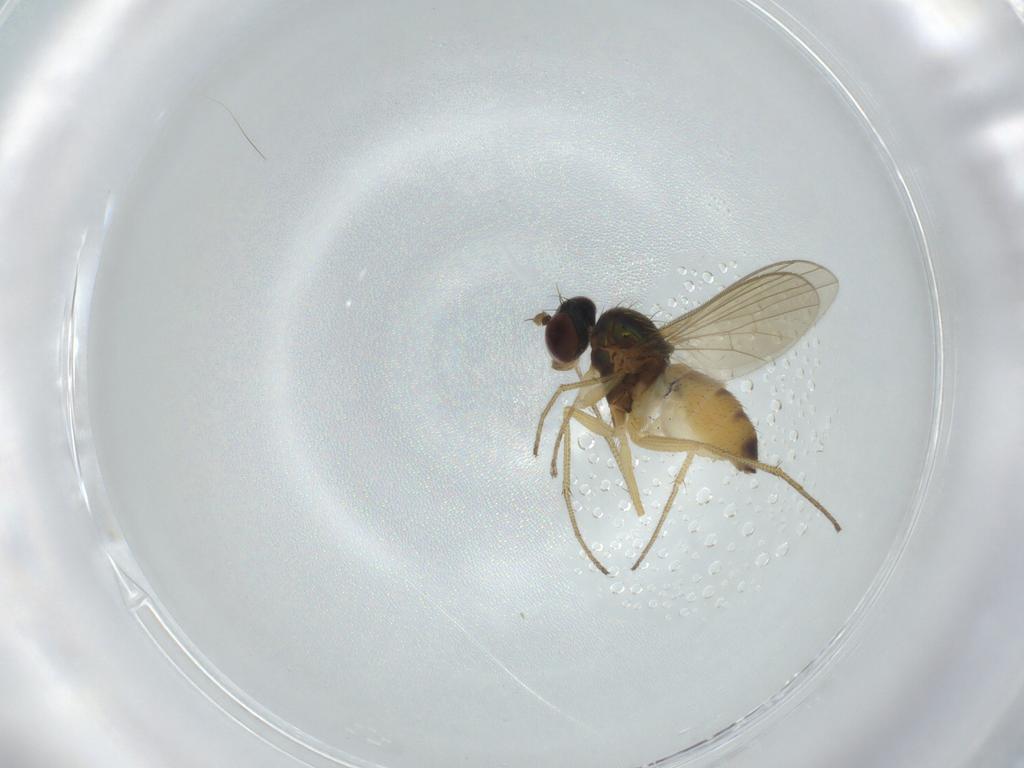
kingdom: Animalia
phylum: Arthropoda
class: Insecta
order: Diptera
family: Dolichopodidae
